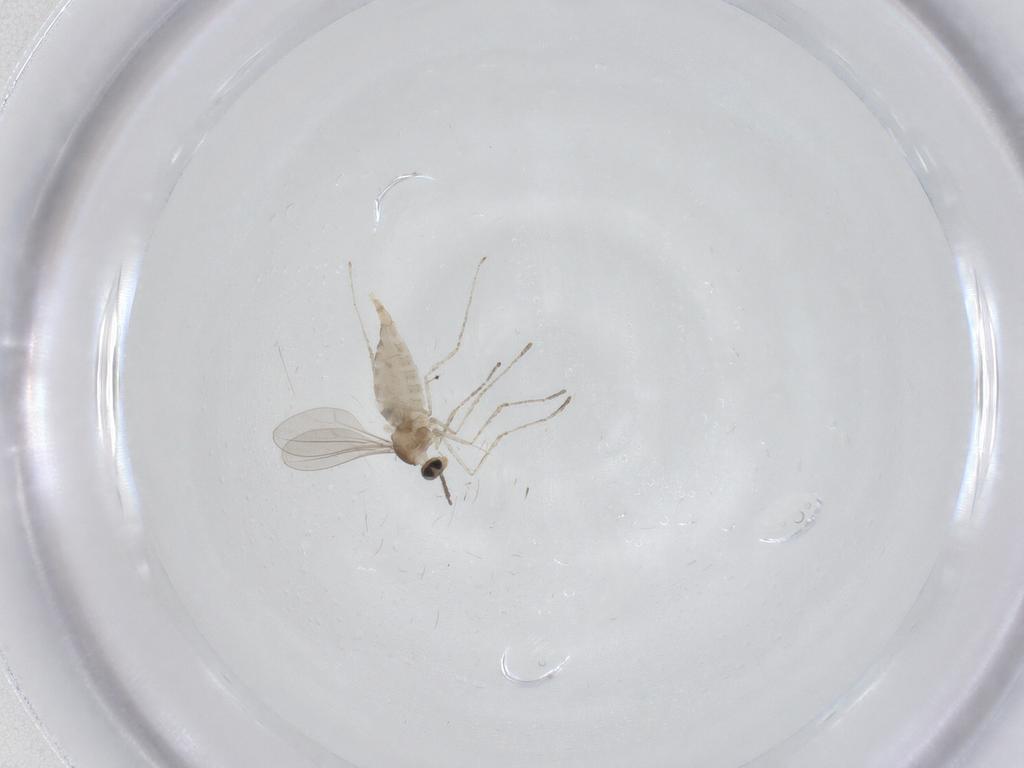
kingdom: Animalia
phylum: Arthropoda
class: Insecta
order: Diptera
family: Cecidomyiidae
